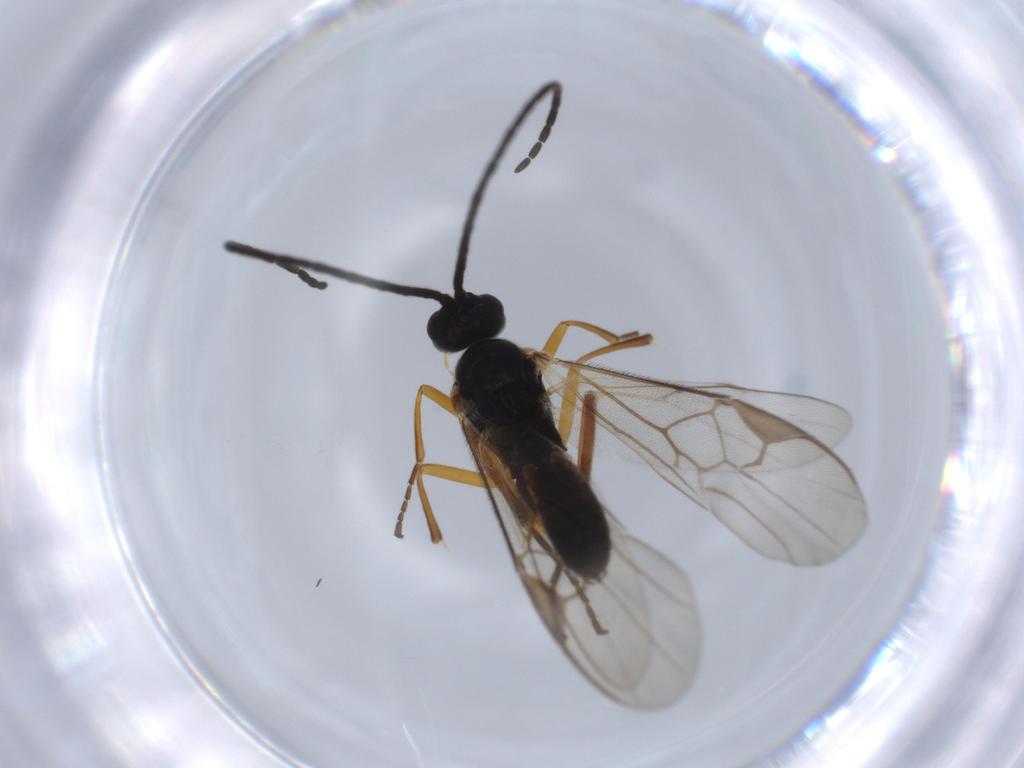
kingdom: Animalia
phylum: Arthropoda
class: Insecta
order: Hymenoptera
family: Braconidae
